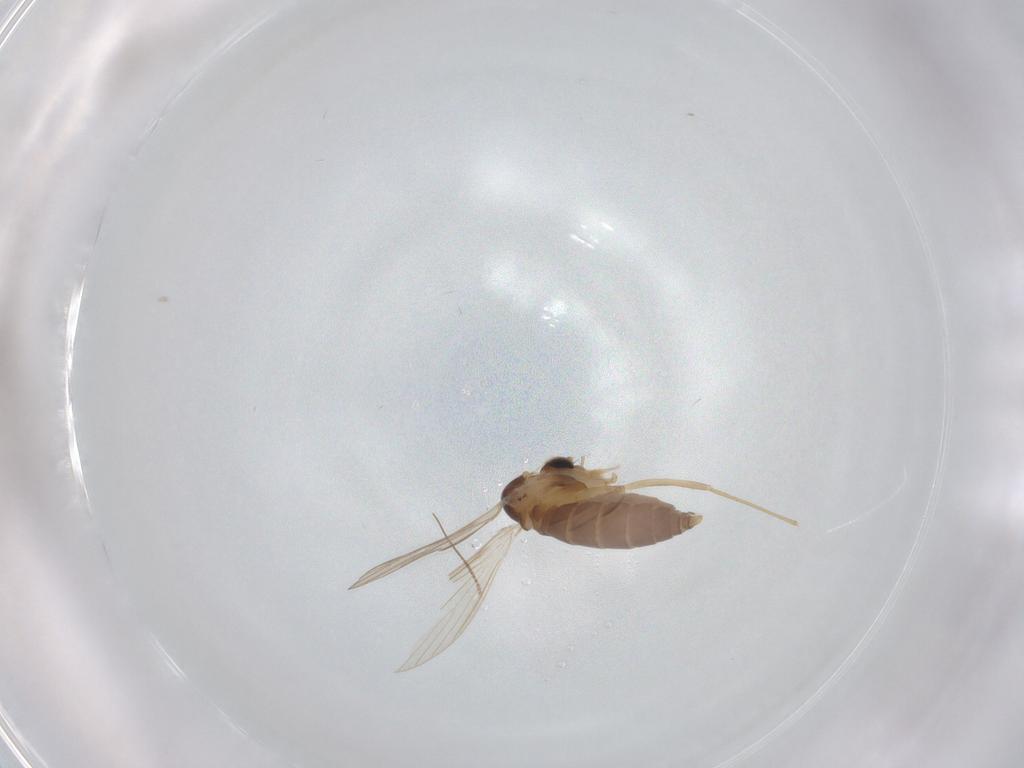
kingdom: Animalia
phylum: Arthropoda
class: Insecta
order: Diptera
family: Psychodidae
